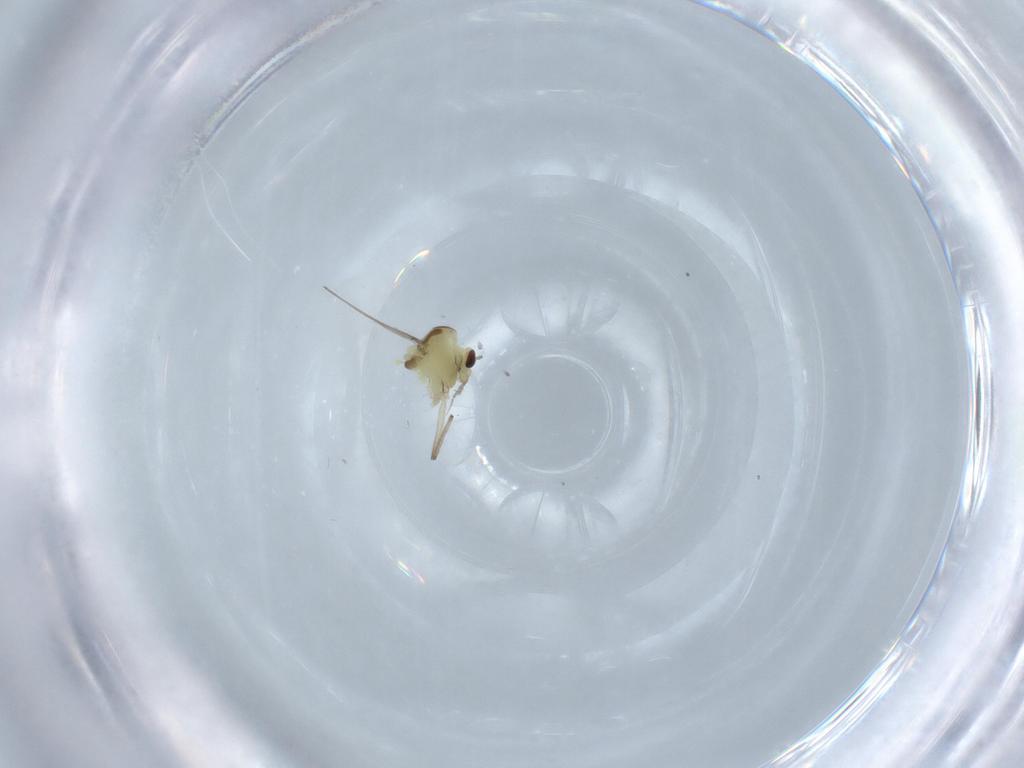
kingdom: Animalia
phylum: Arthropoda
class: Insecta
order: Diptera
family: Chironomidae
